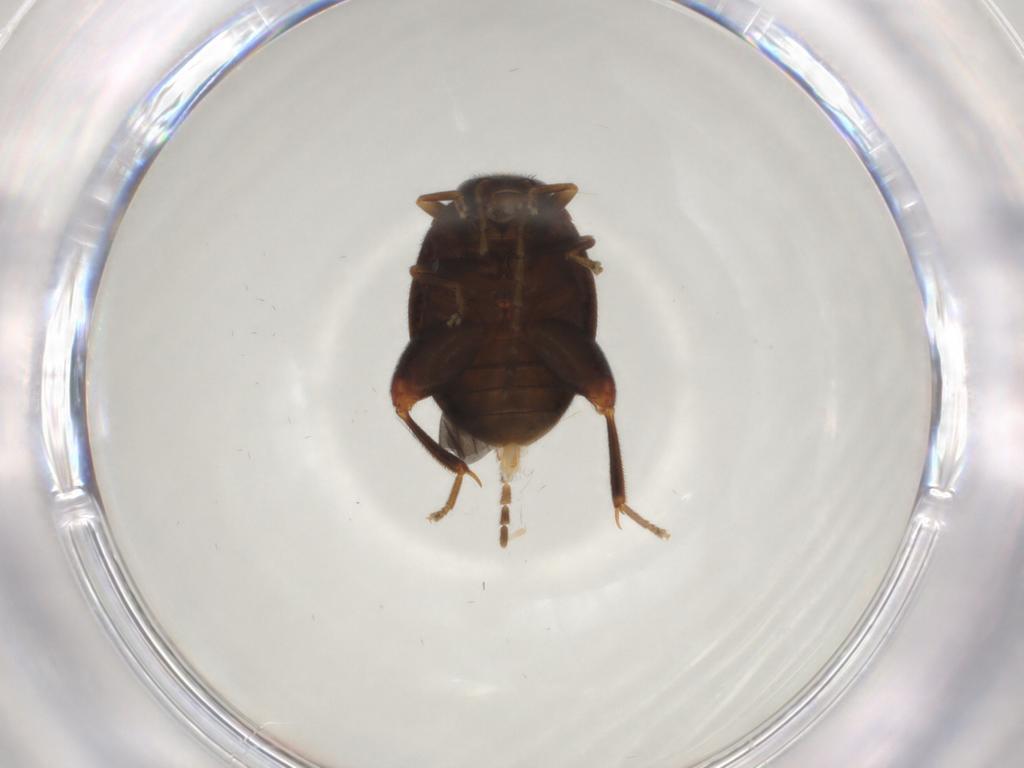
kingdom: Animalia
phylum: Arthropoda
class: Insecta
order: Coleoptera
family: Scirtidae
